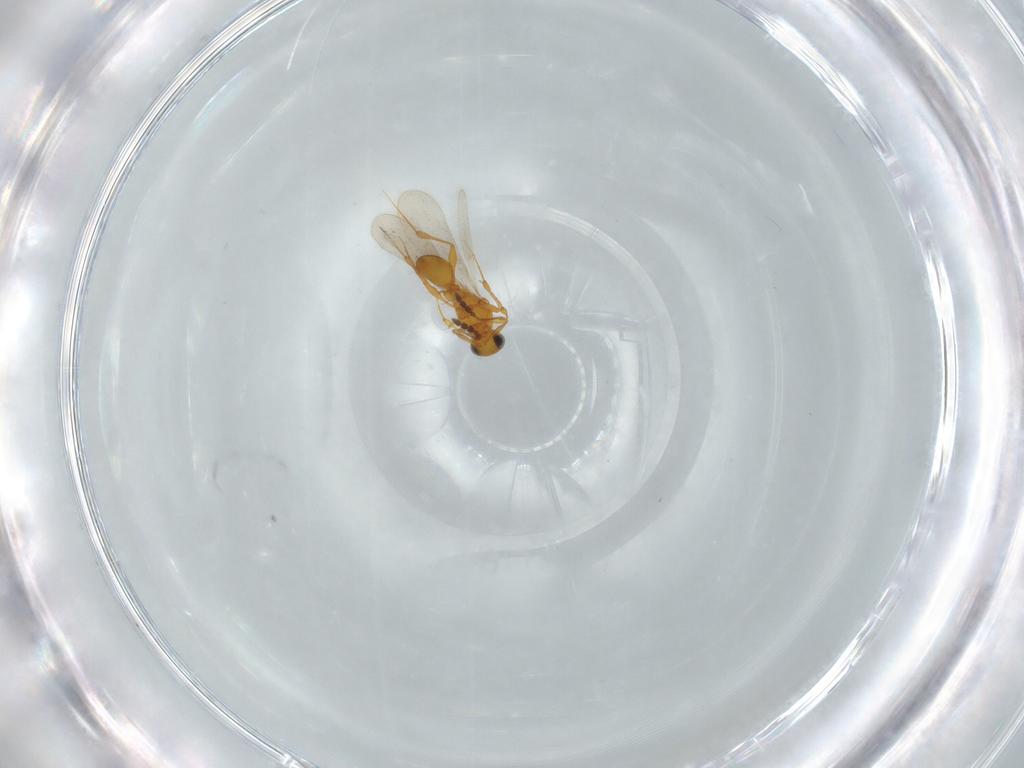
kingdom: Animalia
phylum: Arthropoda
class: Insecta
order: Hymenoptera
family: Platygastridae
